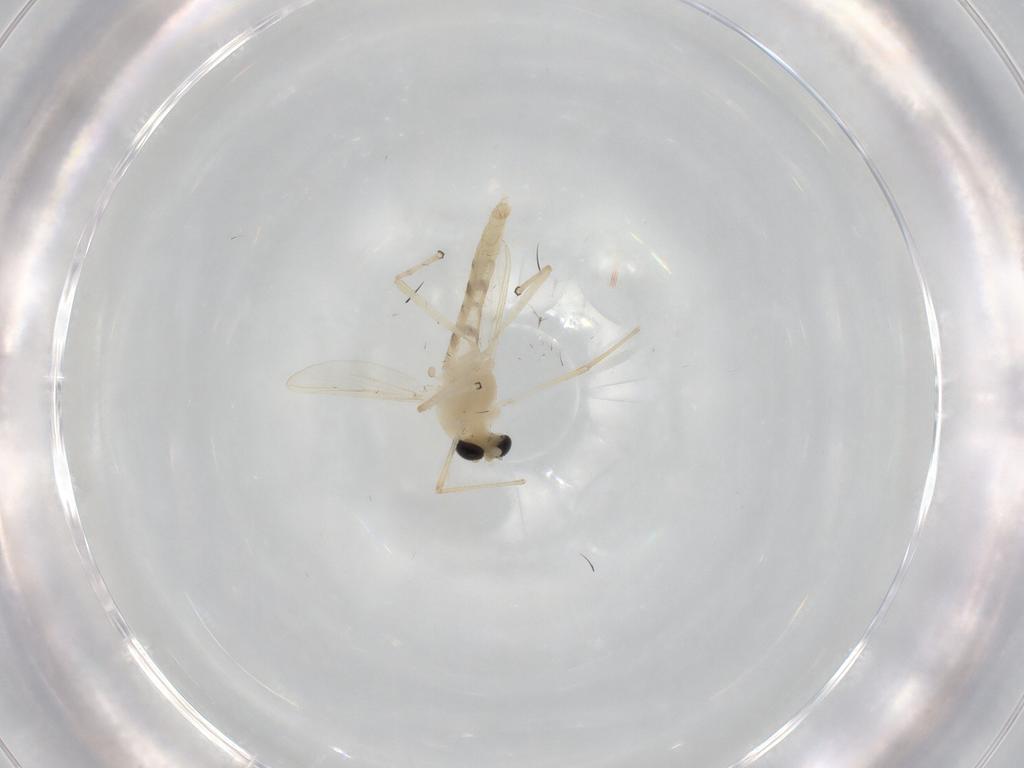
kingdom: Animalia
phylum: Arthropoda
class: Insecta
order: Diptera
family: Chironomidae
